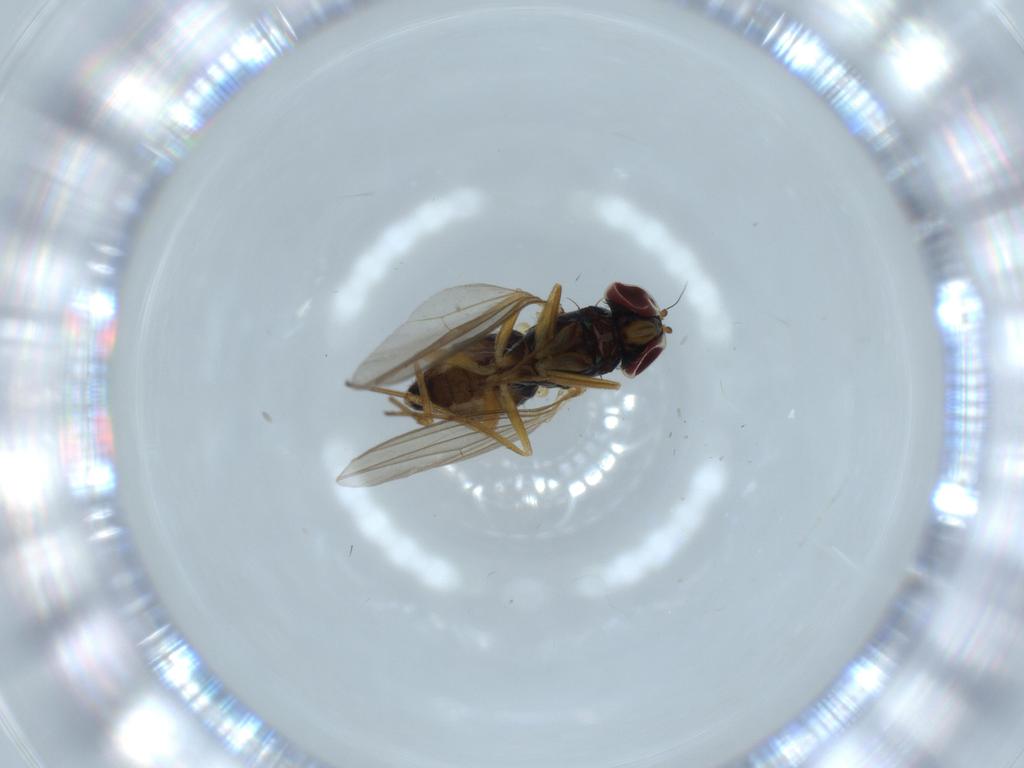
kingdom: Animalia
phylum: Arthropoda
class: Insecta
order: Diptera
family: Dolichopodidae
